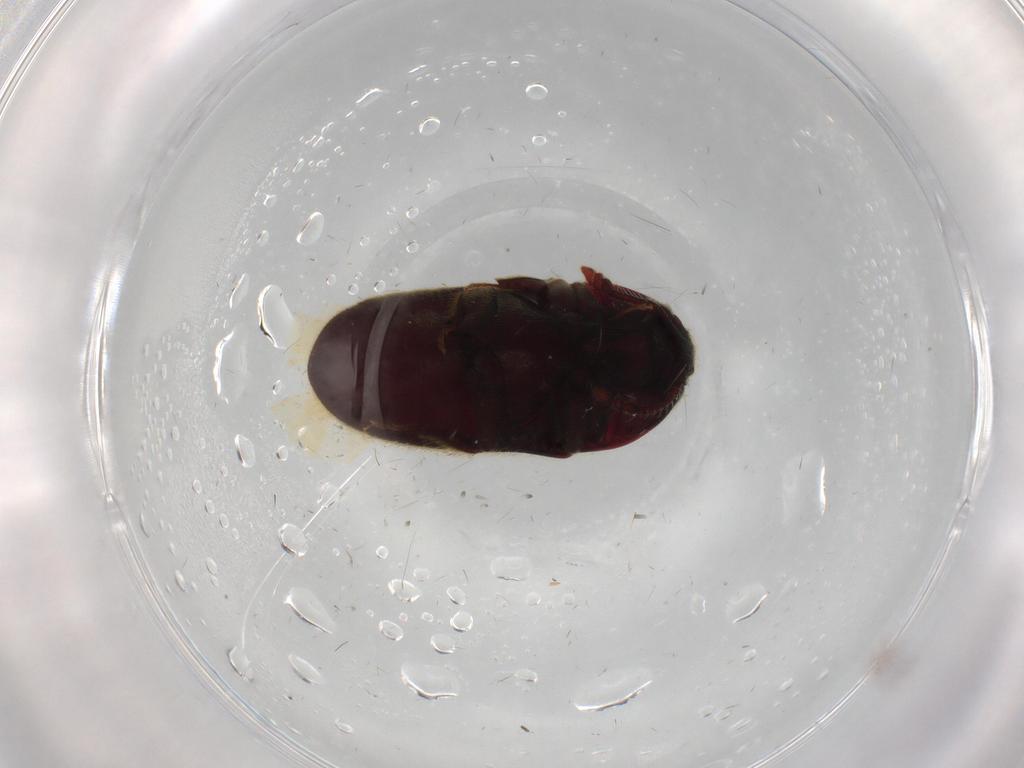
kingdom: Animalia
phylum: Arthropoda
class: Insecta
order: Coleoptera
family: Throscidae
